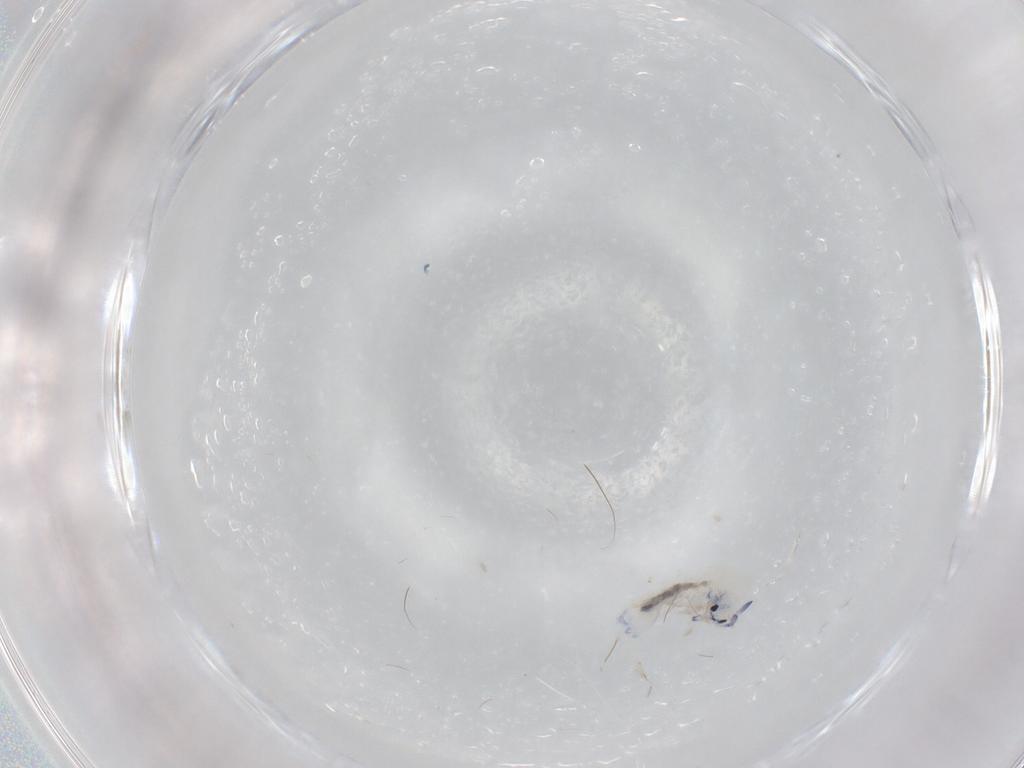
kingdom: Animalia
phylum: Arthropoda
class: Collembola
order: Entomobryomorpha
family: Entomobryidae
